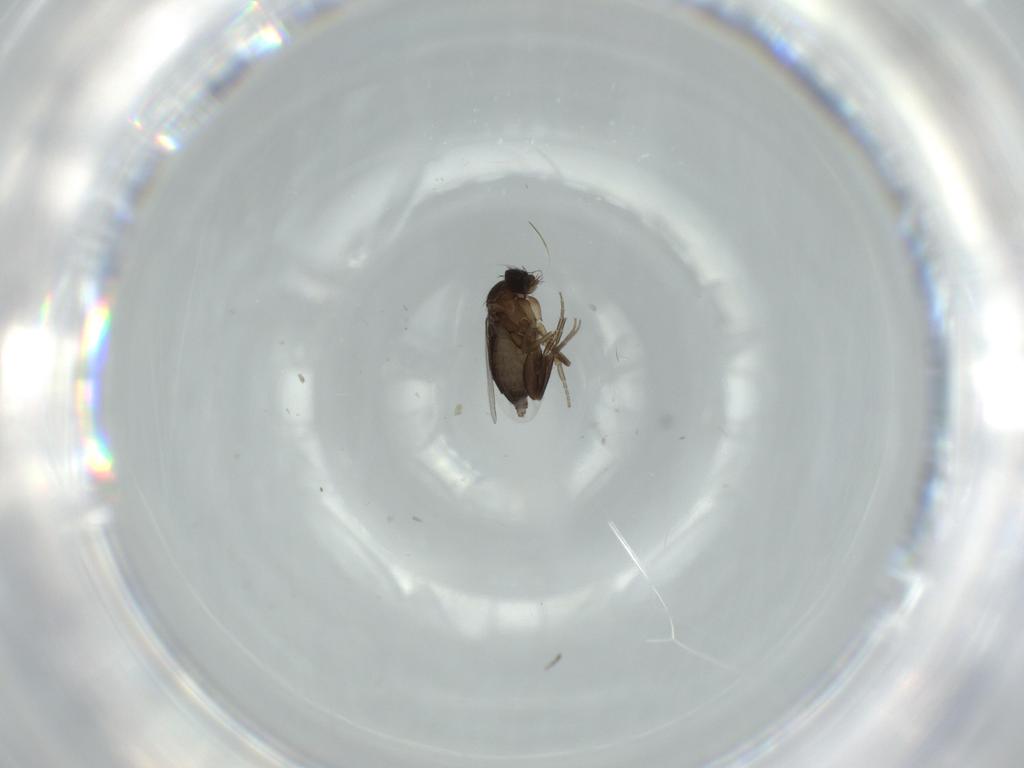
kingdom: Animalia
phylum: Arthropoda
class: Insecta
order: Diptera
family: Phoridae
